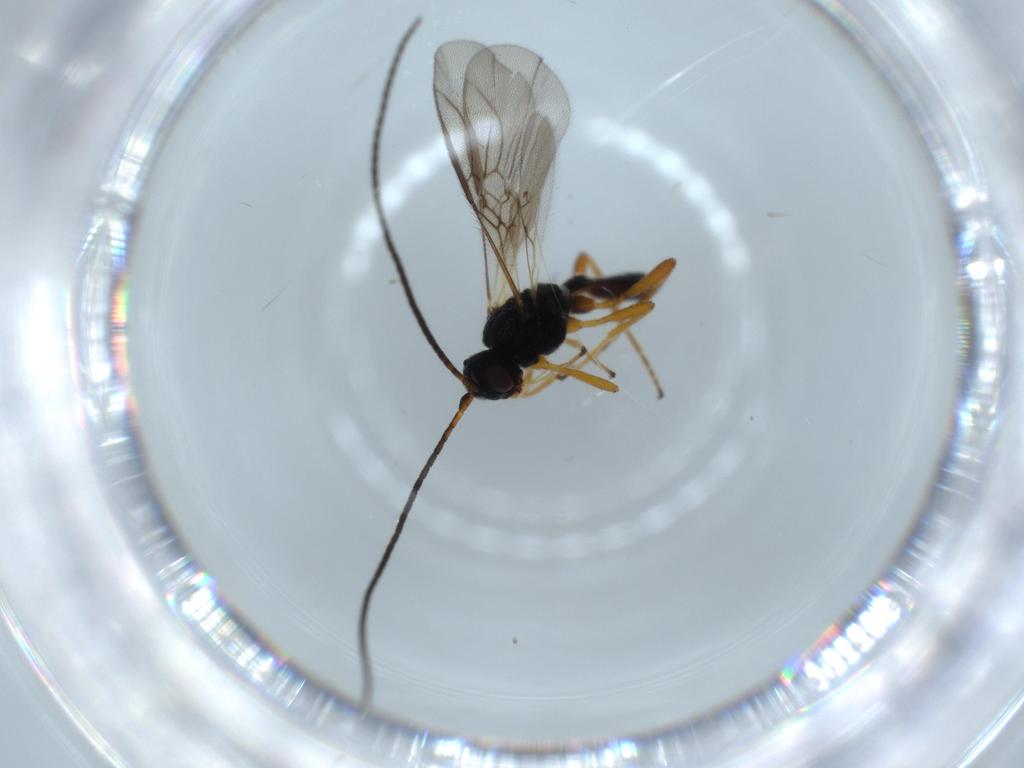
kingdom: Animalia
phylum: Arthropoda
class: Insecta
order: Hymenoptera
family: Braconidae
